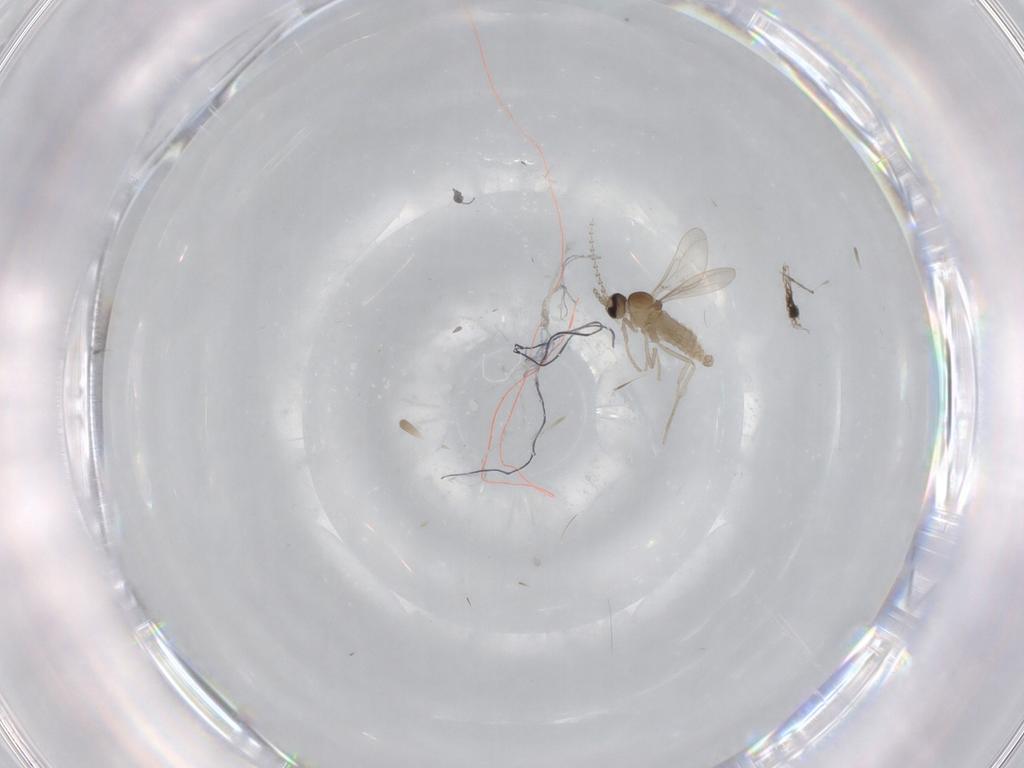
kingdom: Animalia
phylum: Arthropoda
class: Insecta
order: Diptera
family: Cecidomyiidae
